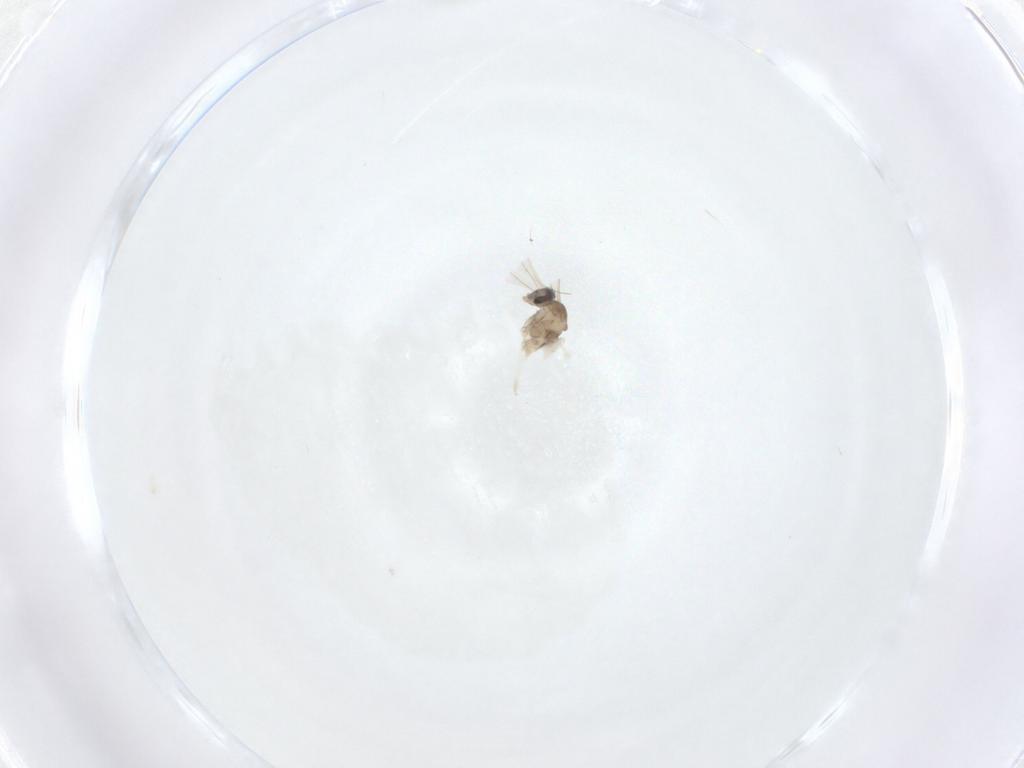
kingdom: Animalia
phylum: Arthropoda
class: Insecta
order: Diptera
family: Cecidomyiidae
